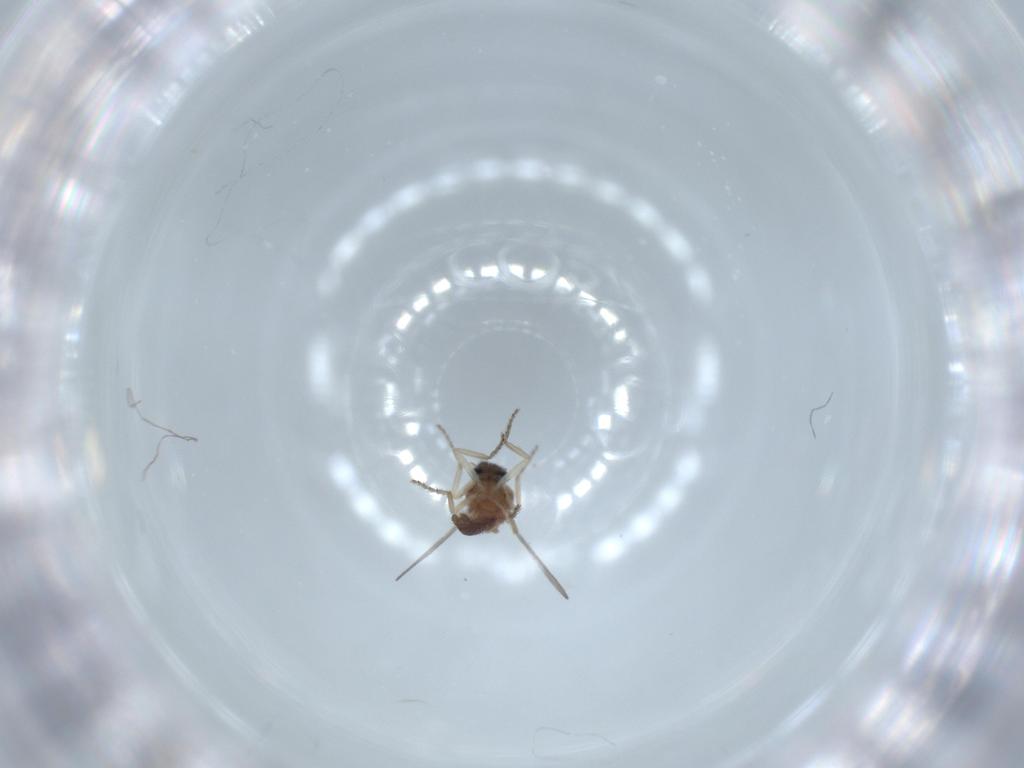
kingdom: Animalia
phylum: Arthropoda
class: Insecta
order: Diptera
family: Ceratopogonidae
